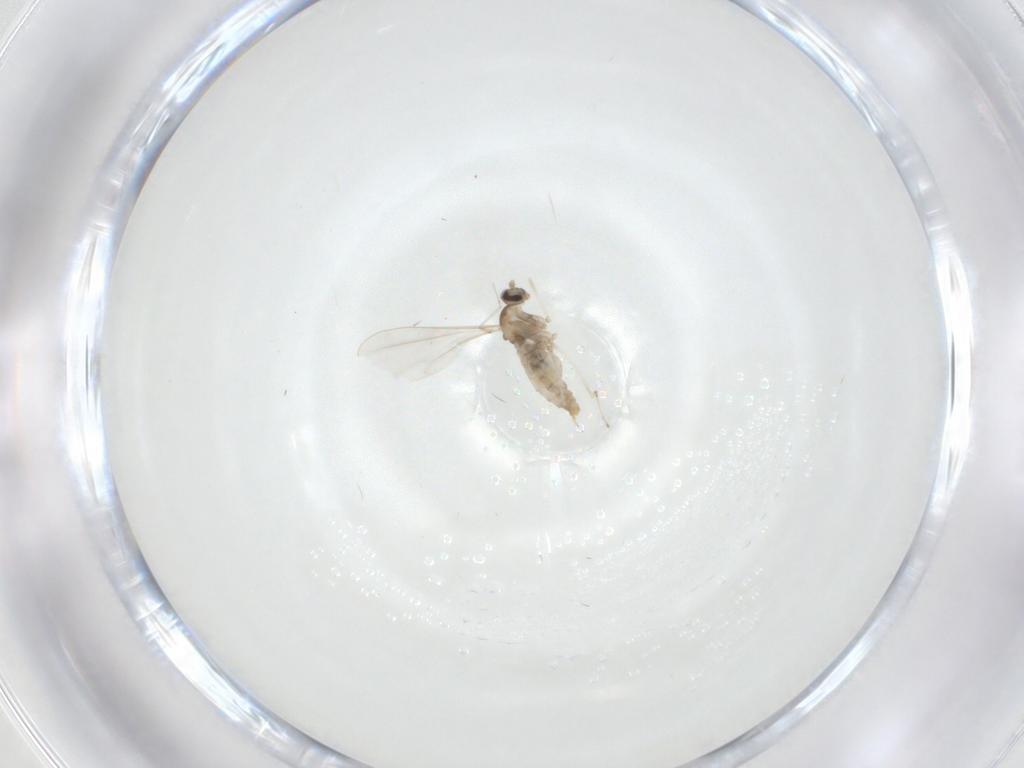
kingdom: Animalia
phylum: Arthropoda
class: Insecta
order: Diptera
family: Cecidomyiidae
